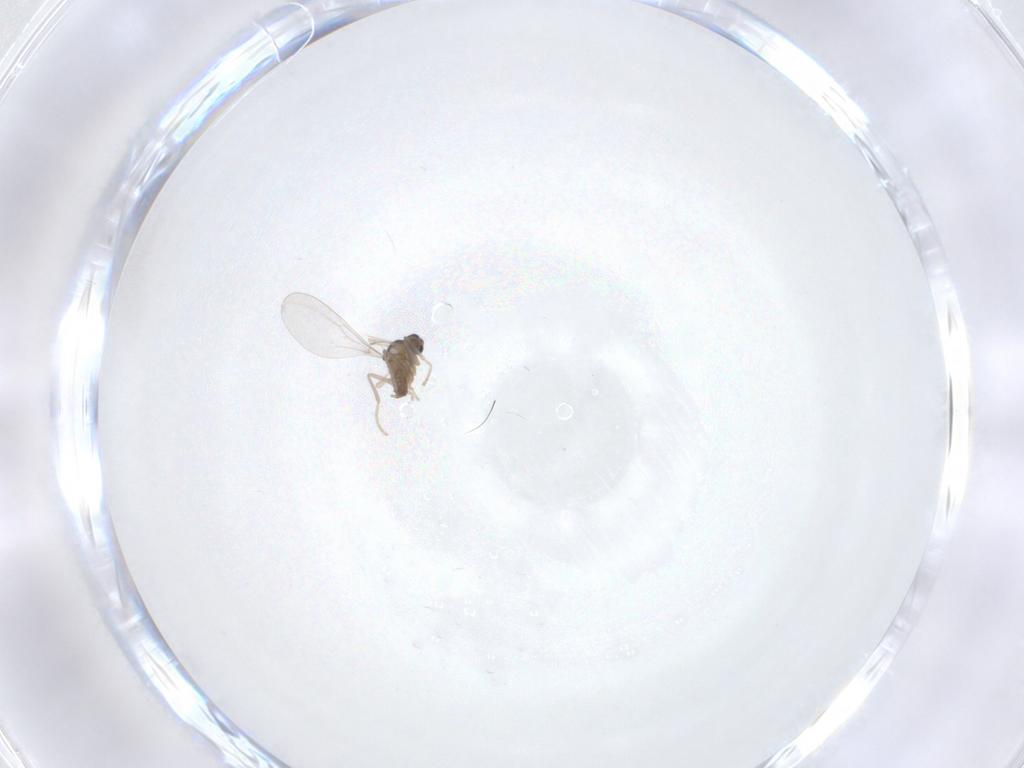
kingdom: Animalia
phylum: Arthropoda
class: Insecta
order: Diptera
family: Cecidomyiidae
